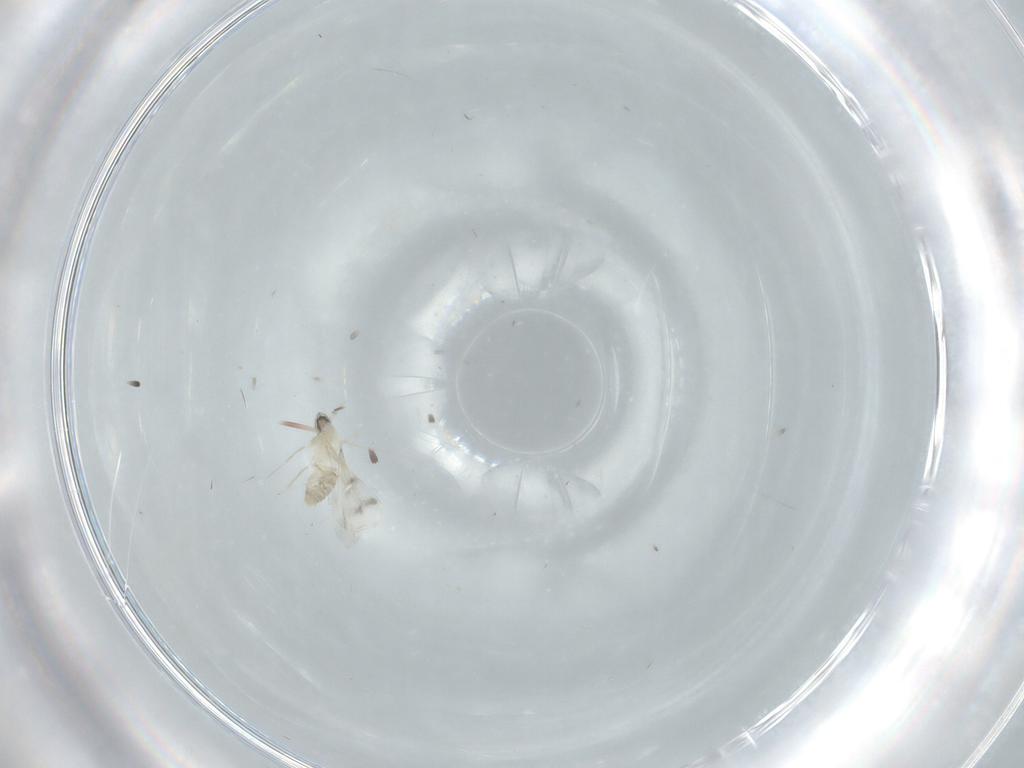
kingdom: Animalia
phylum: Arthropoda
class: Insecta
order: Diptera
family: Cecidomyiidae
